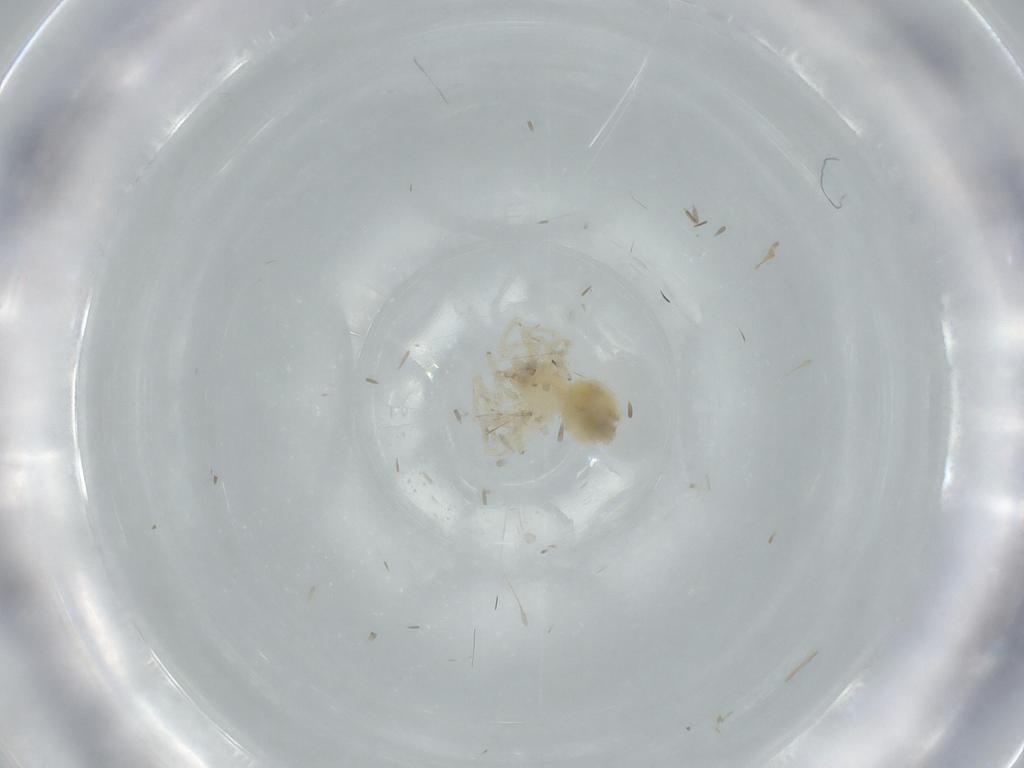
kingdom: Animalia
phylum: Arthropoda
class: Arachnida
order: Araneae
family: Oonopidae
